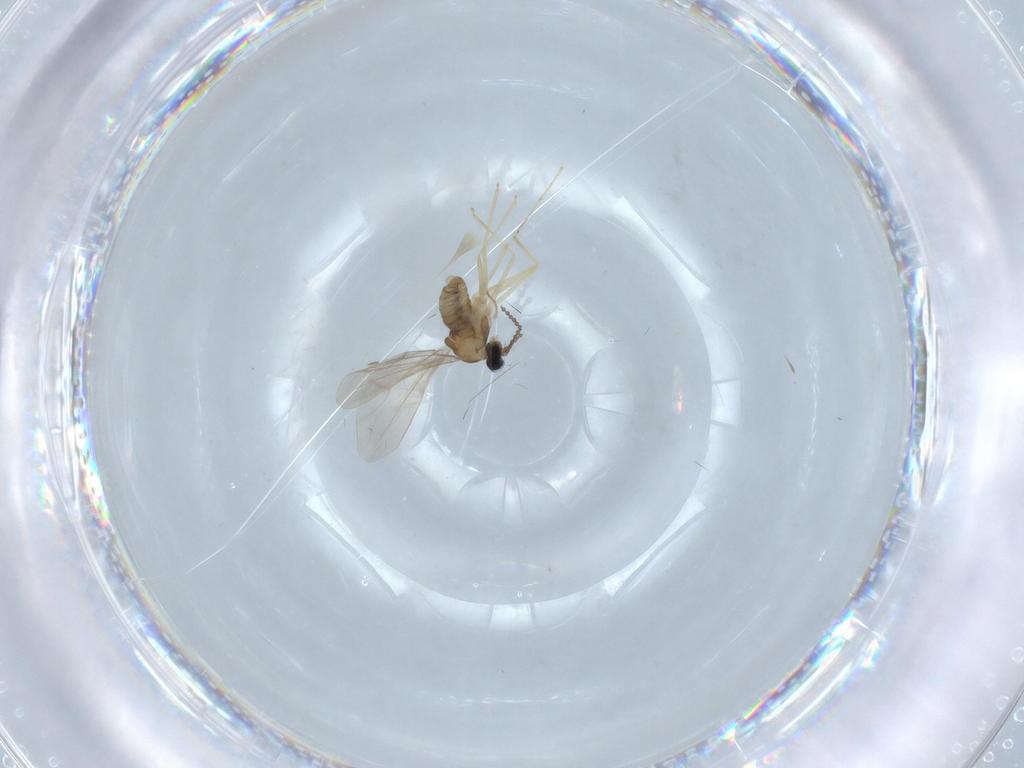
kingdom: Animalia
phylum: Arthropoda
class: Insecta
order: Diptera
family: Cecidomyiidae
